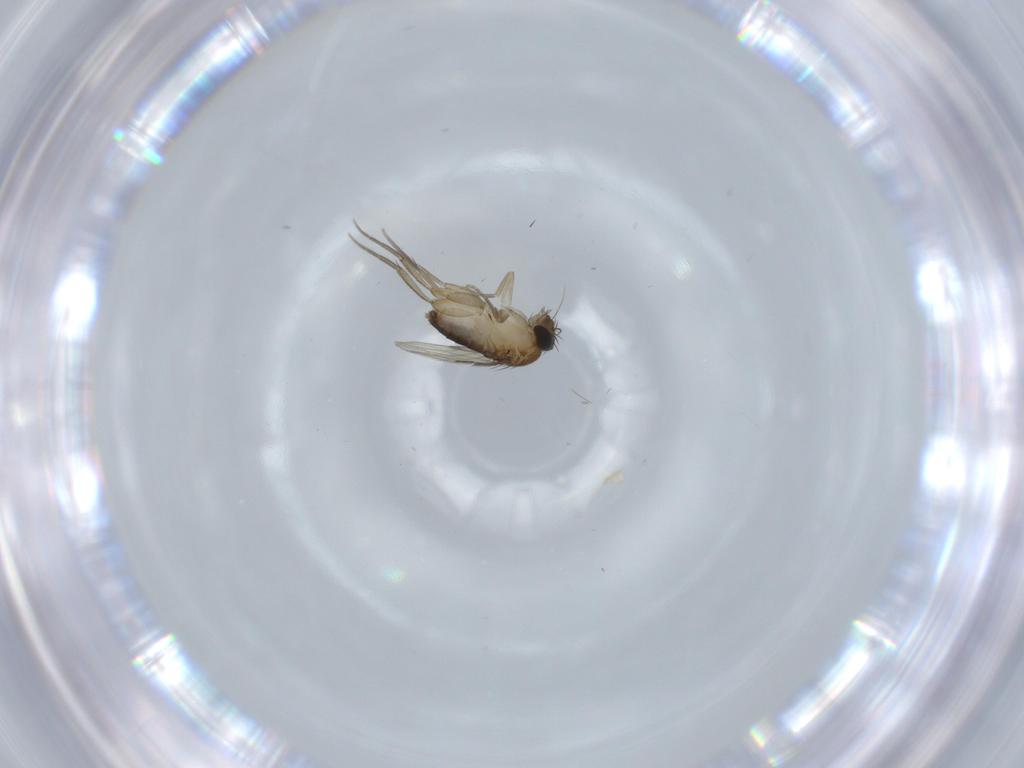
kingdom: Animalia
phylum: Arthropoda
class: Insecta
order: Diptera
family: Phoridae
